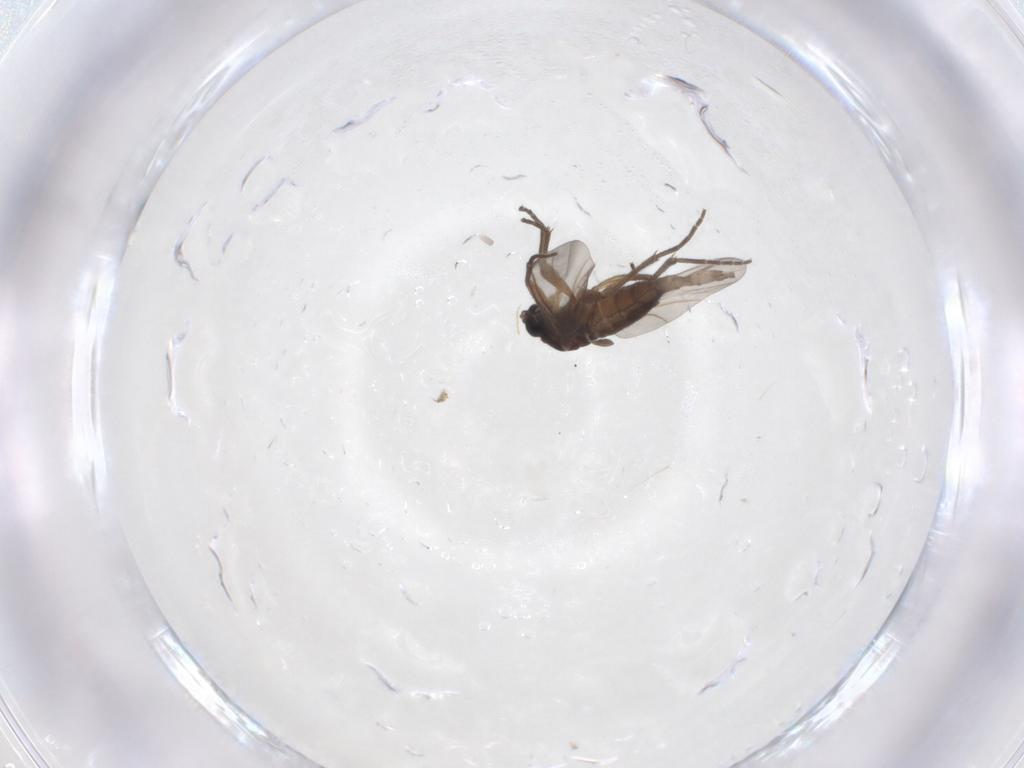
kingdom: Animalia
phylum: Arthropoda
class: Insecta
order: Diptera
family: Sciaridae
